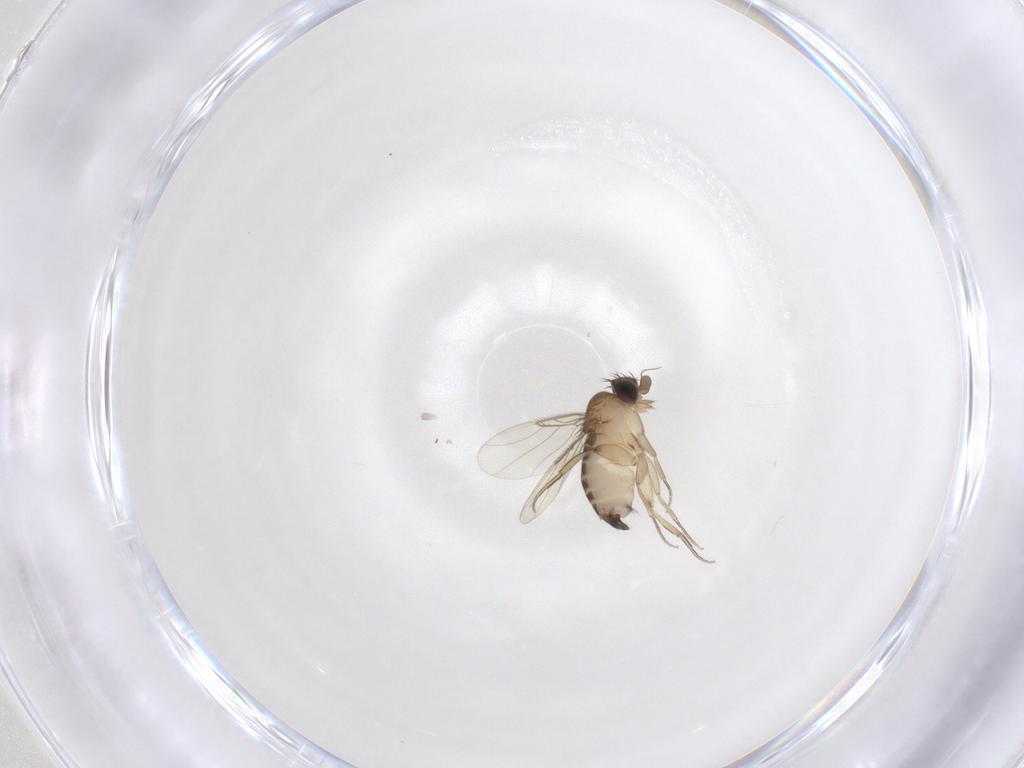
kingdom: Animalia
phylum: Arthropoda
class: Insecta
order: Diptera
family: Phoridae
